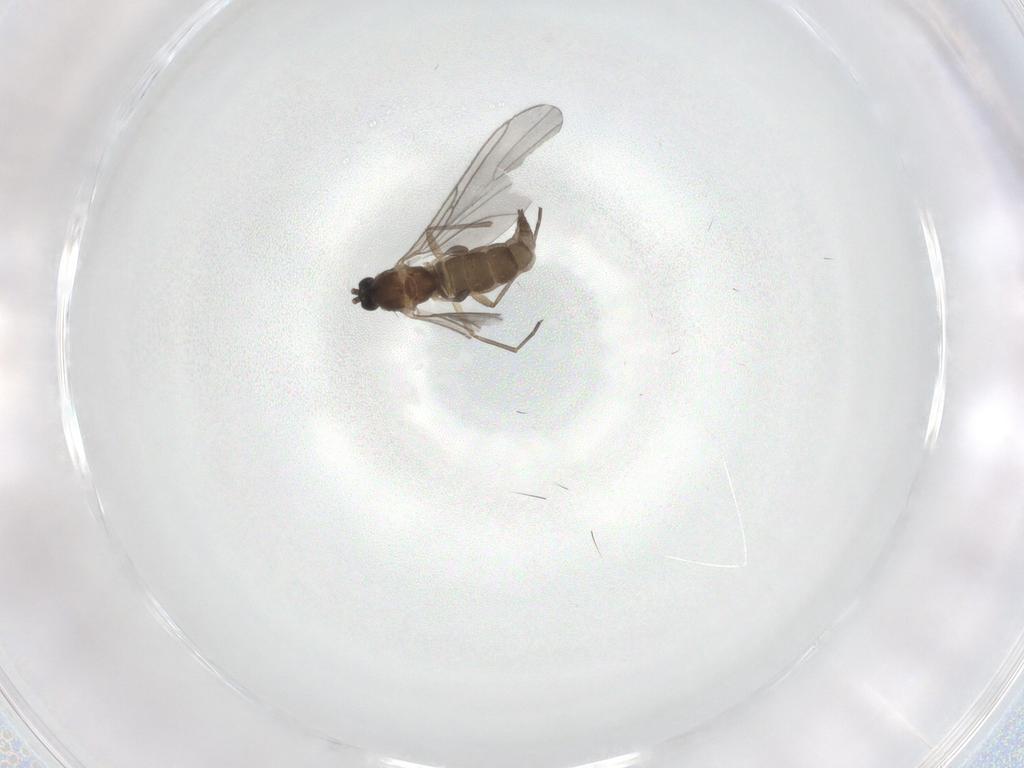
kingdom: Animalia
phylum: Arthropoda
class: Insecta
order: Diptera
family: Sciaridae
